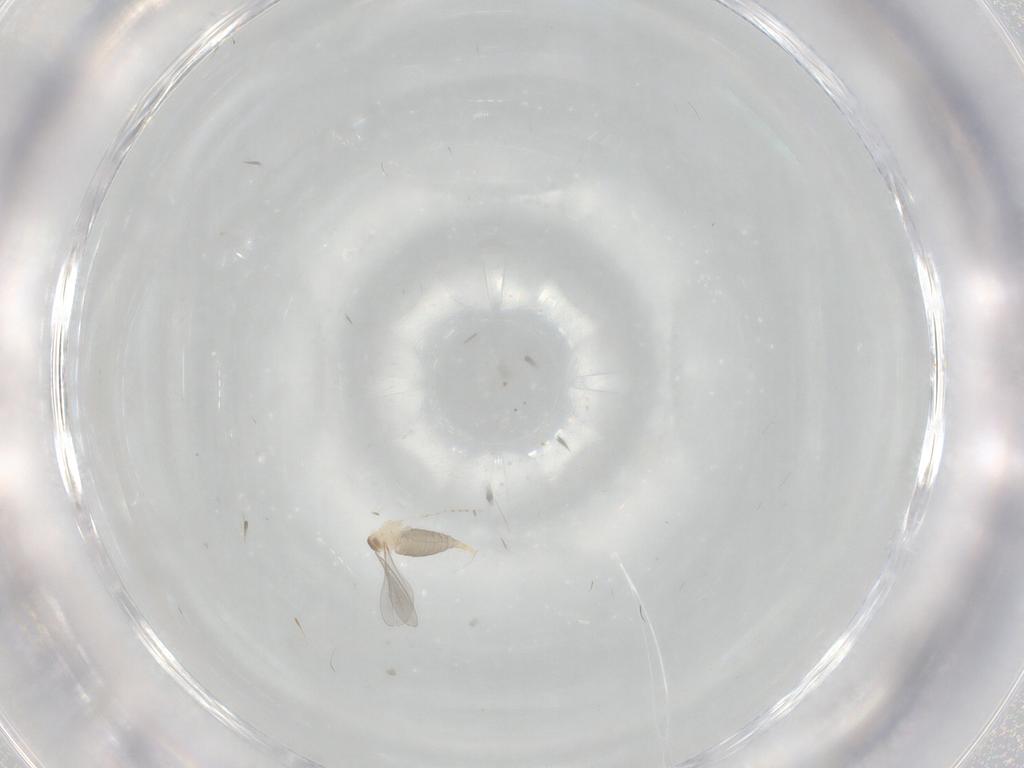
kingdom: Animalia
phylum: Arthropoda
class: Insecta
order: Diptera
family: Cecidomyiidae
